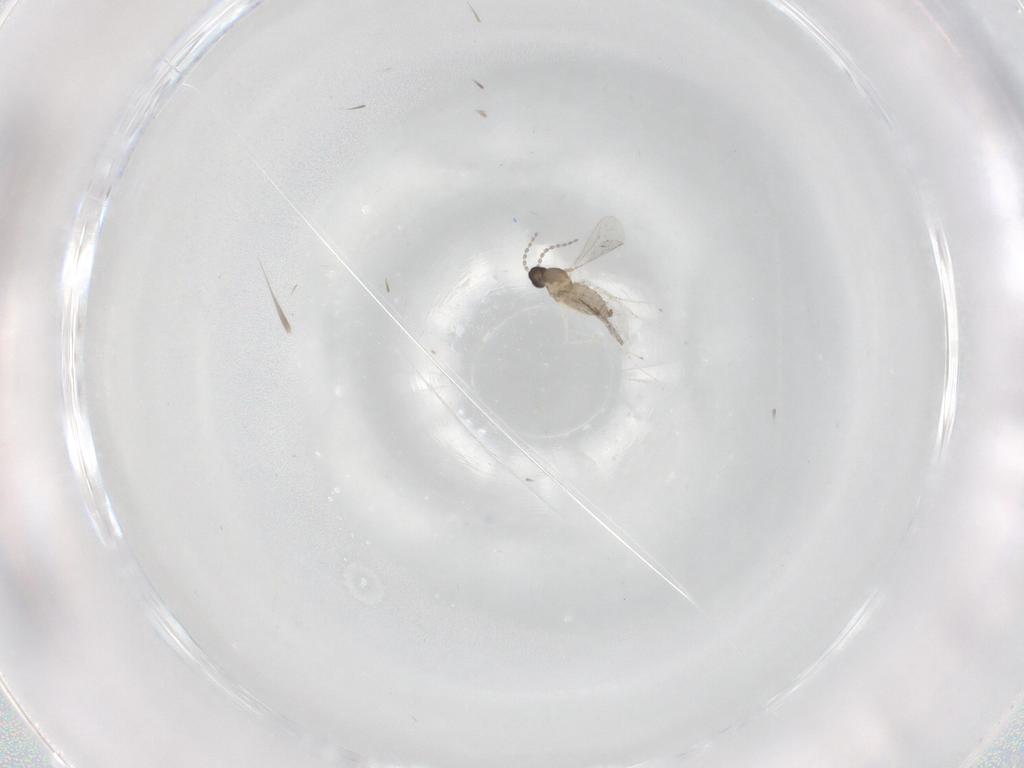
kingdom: Animalia
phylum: Arthropoda
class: Insecta
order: Diptera
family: Cecidomyiidae
